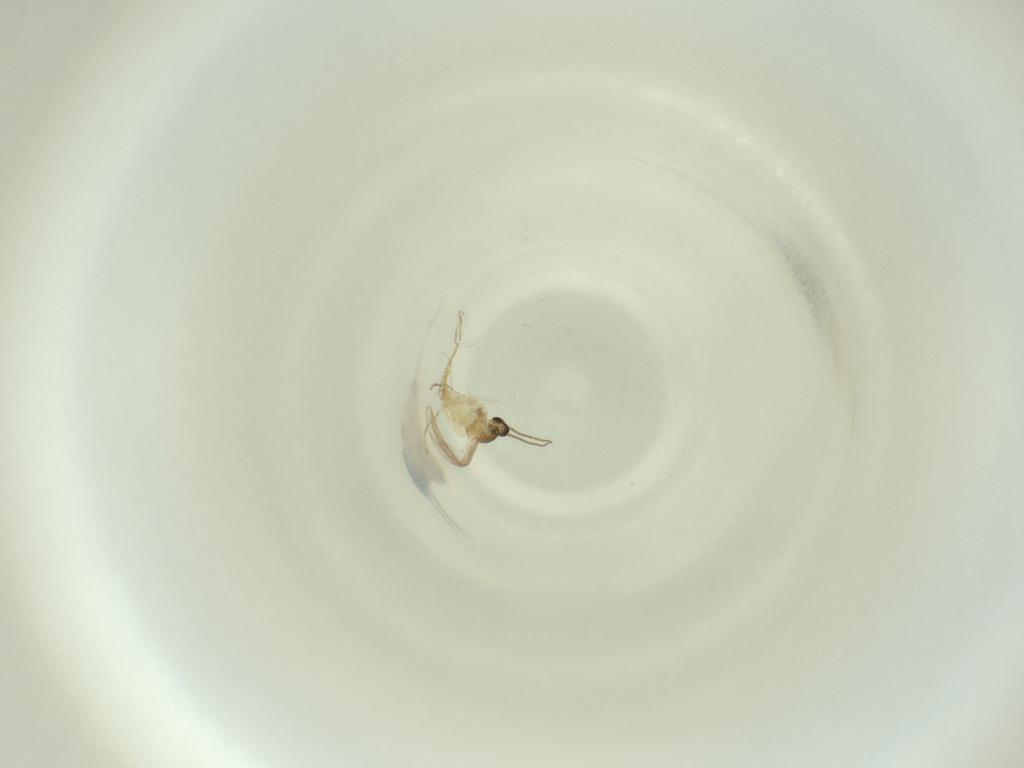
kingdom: Animalia
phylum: Arthropoda
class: Insecta
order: Diptera
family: Cecidomyiidae
